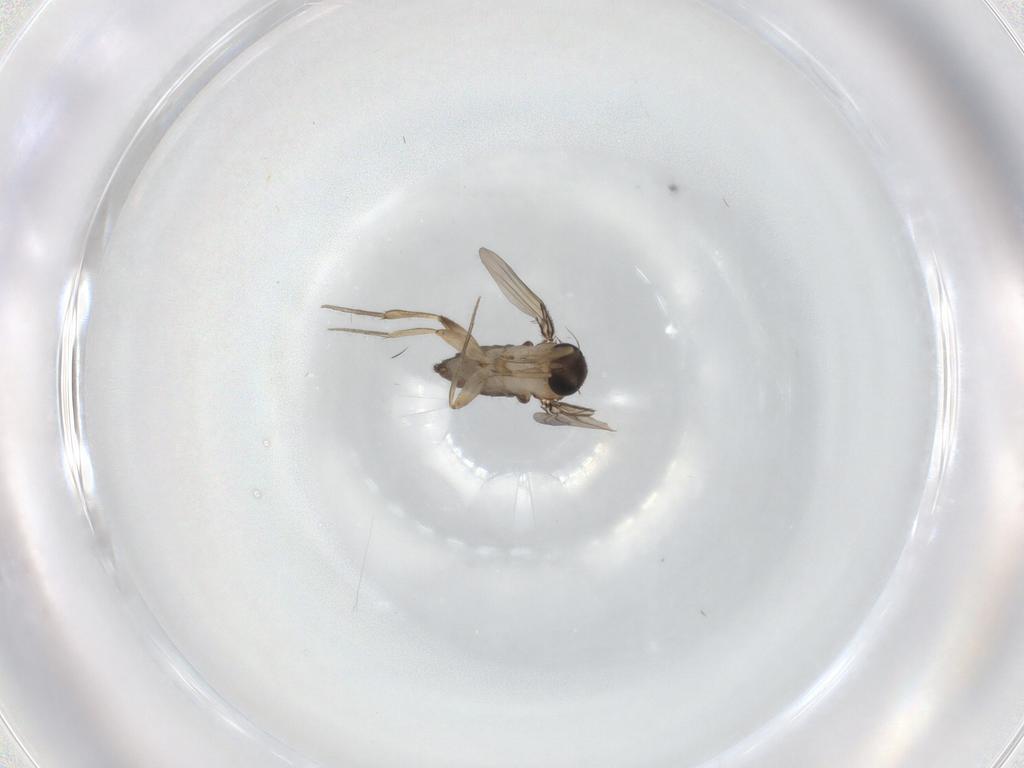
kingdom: Animalia
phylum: Arthropoda
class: Insecta
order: Diptera
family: Phoridae
